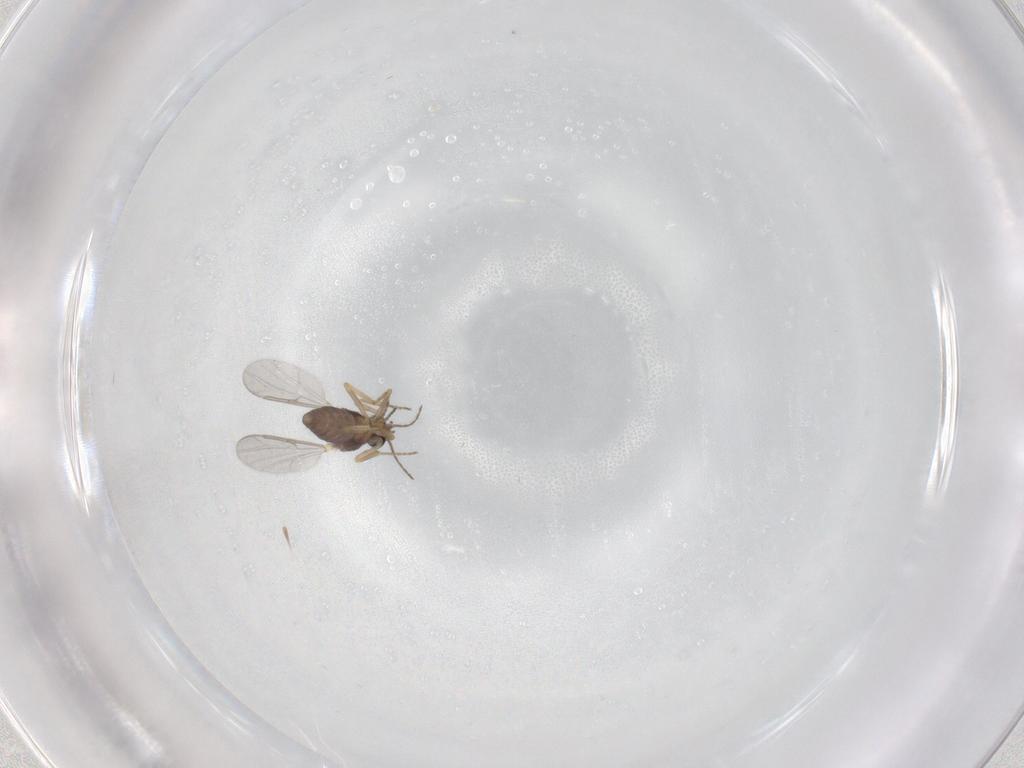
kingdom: Animalia
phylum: Arthropoda
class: Insecta
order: Diptera
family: Ceratopogonidae
